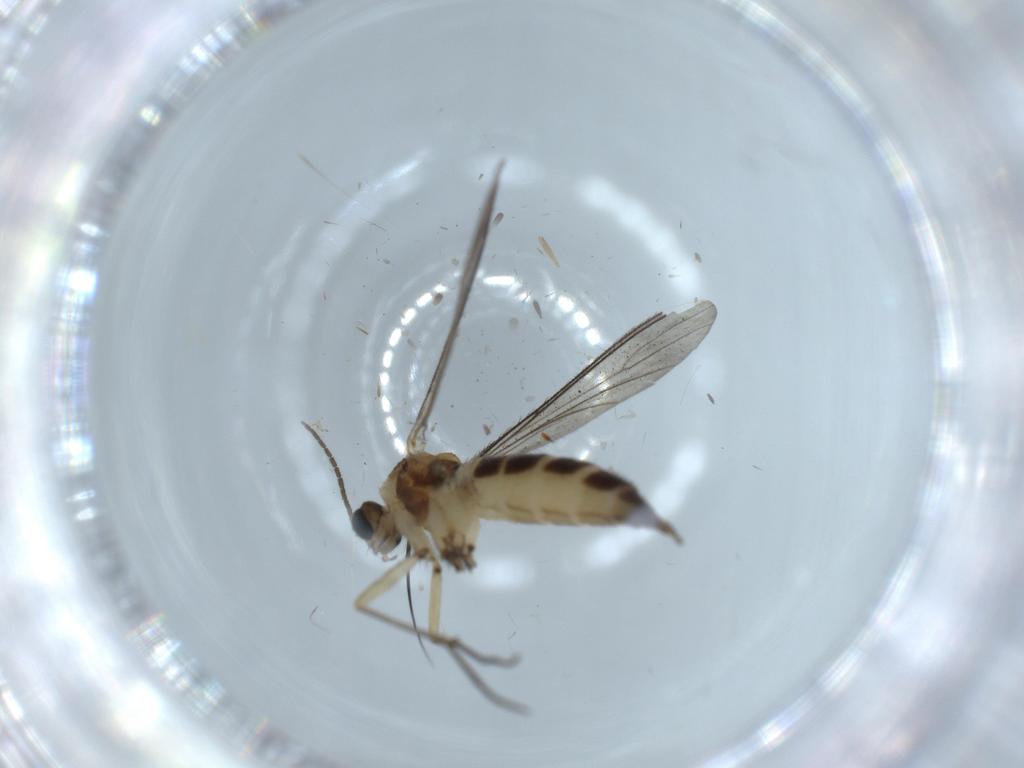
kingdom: Animalia
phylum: Arthropoda
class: Insecta
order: Diptera
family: Sciaridae
